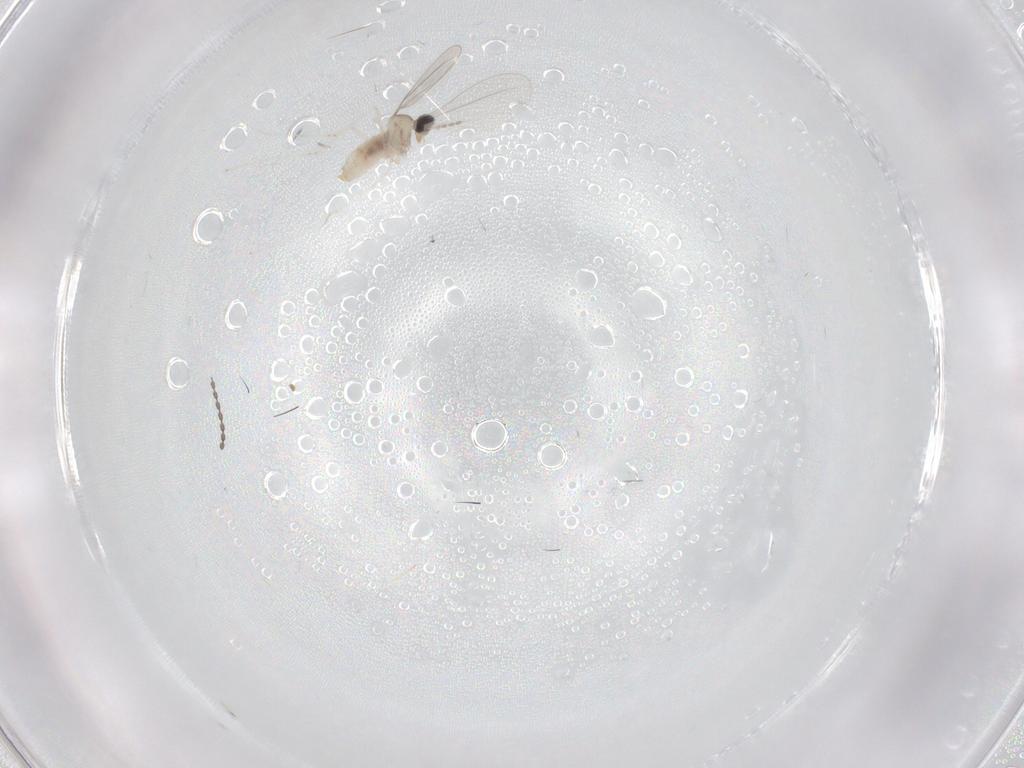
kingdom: Animalia
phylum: Arthropoda
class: Insecta
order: Diptera
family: Cecidomyiidae
